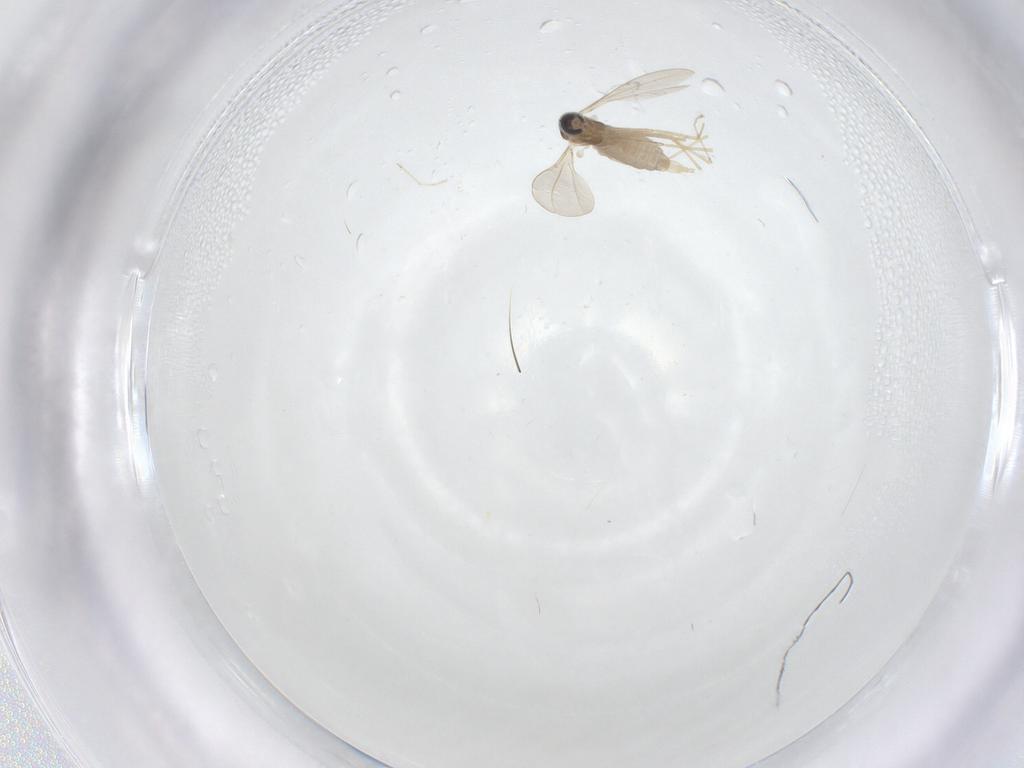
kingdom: Animalia
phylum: Arthropoda
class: Insecta
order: Diptera
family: Cecidomyiidae
